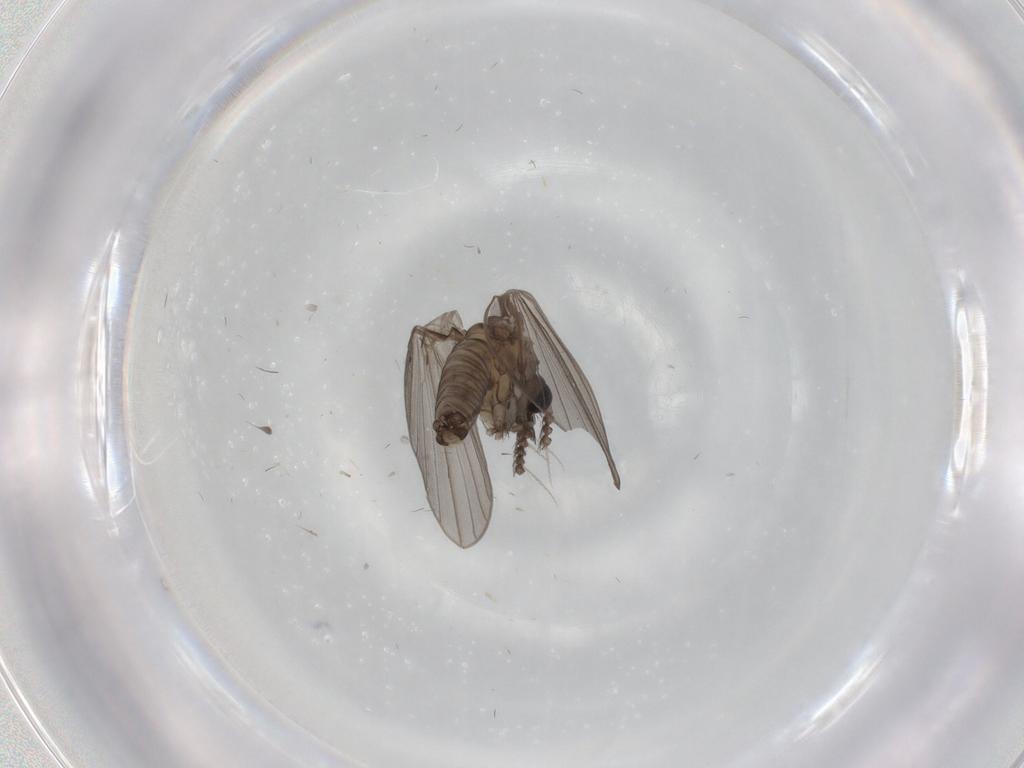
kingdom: Animalia
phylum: Arthropoda
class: Insecta
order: Diptera
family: Psychodidae
